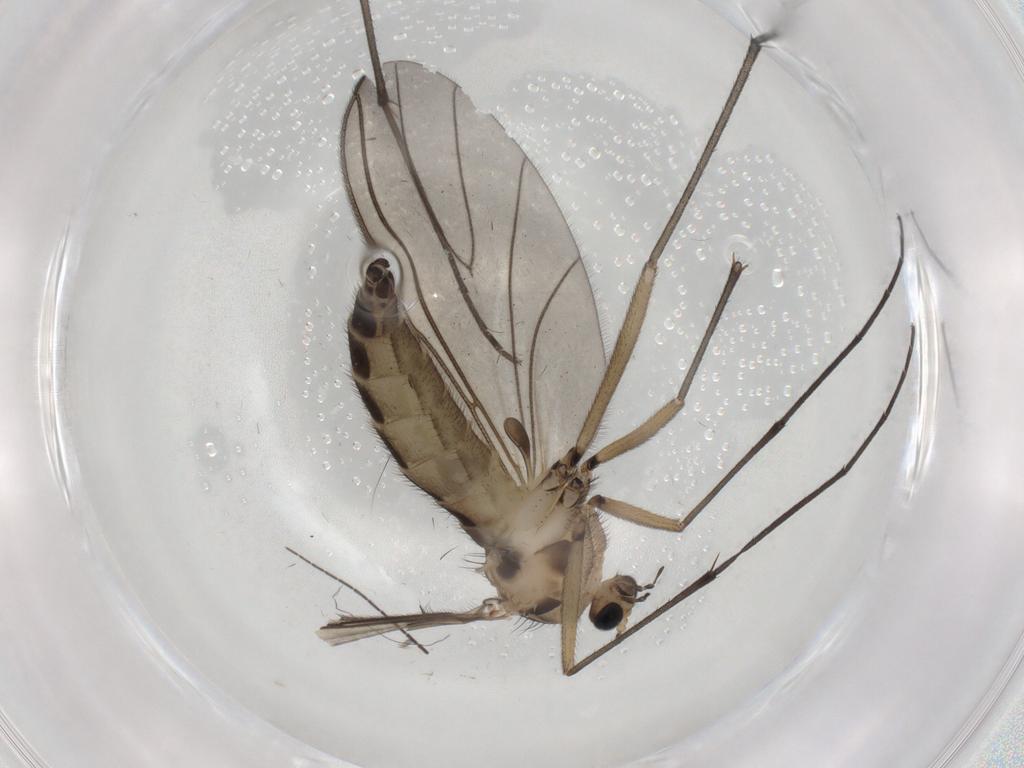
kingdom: Animalia
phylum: Arthropoda
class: Insecta
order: Diptera
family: Sciaridae
